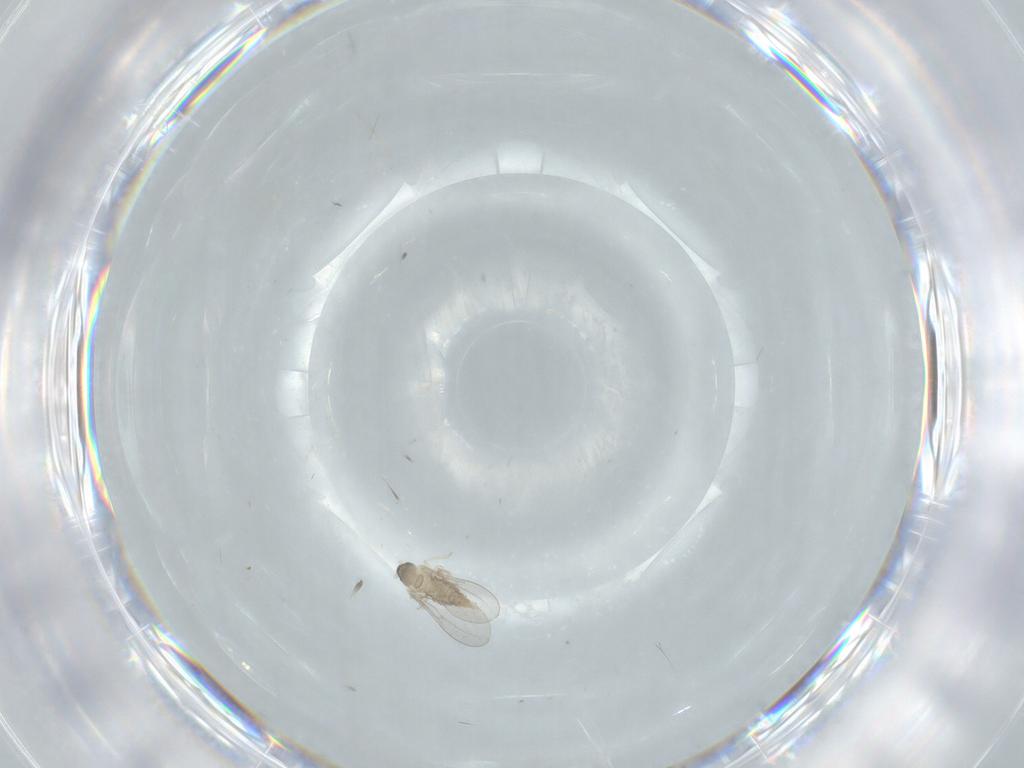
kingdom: Animalia
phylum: Arthropoda
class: Insecta
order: Diptera
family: Cecidomyiidae
